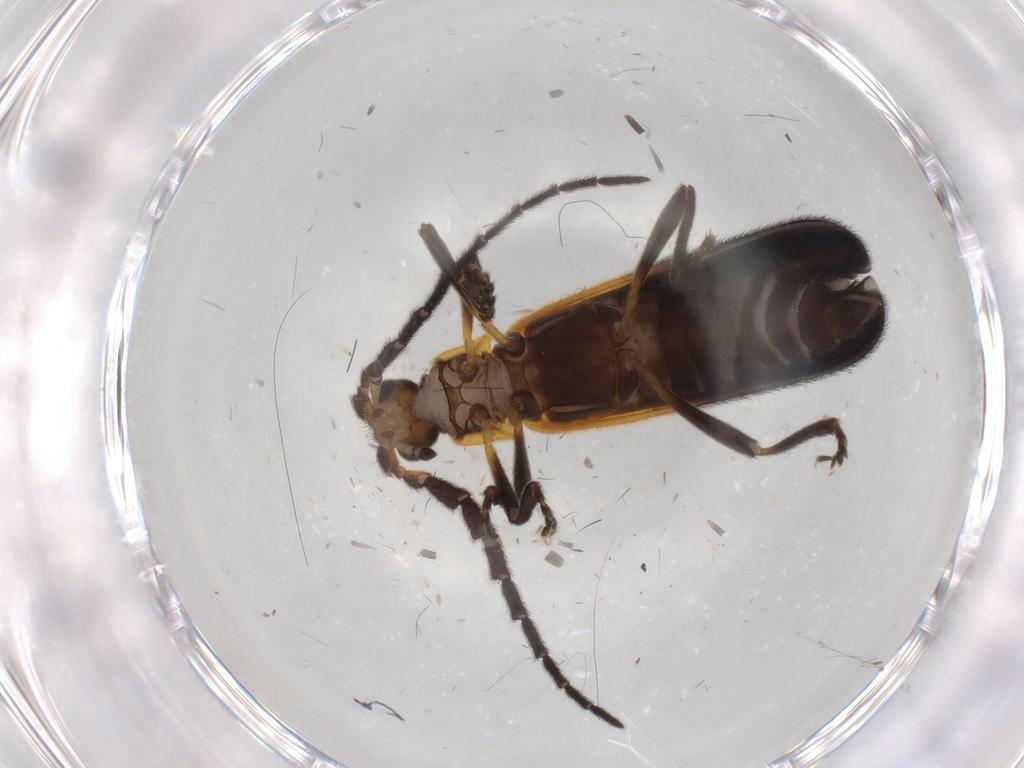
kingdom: Animalia
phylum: Arthropoda
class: Insecta
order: Coleoptera
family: Lycidae
